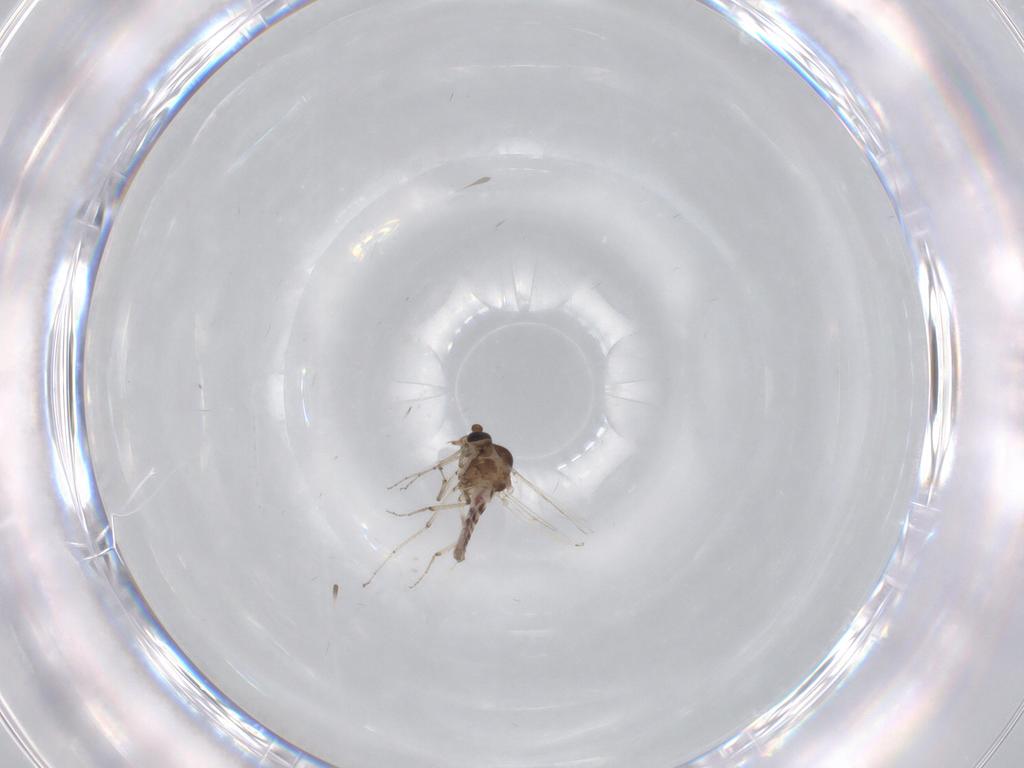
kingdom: Animalia
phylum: Arthropoda
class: Insecta
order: Diptera
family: Ceratopogonidae
